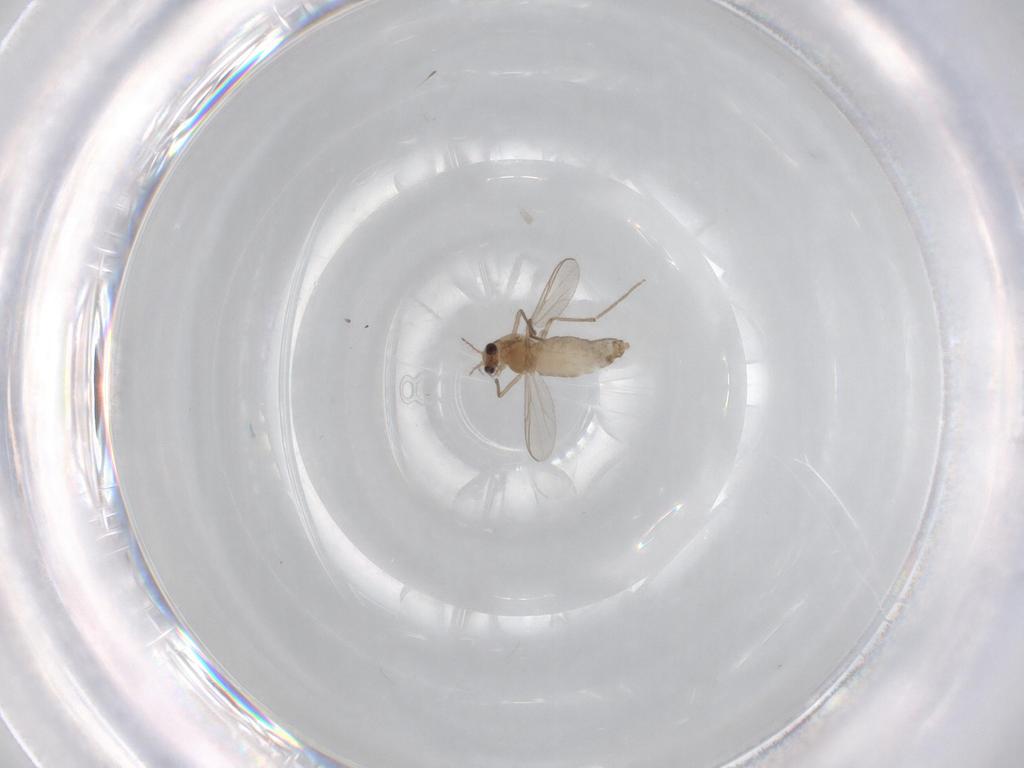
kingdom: Animalia
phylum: Arthropoda
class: Insecta
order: Diptera
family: Chironomidae
